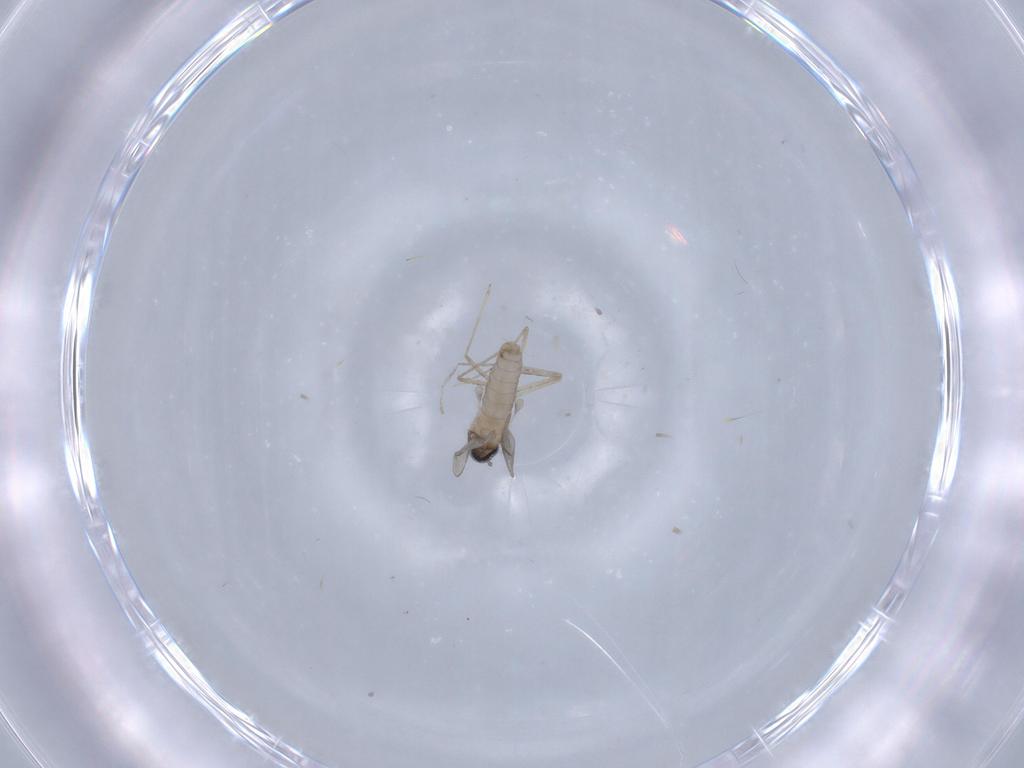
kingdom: Animalia
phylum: Arthropoda
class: Insecta
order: Diptera
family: Cecidomyiidae
